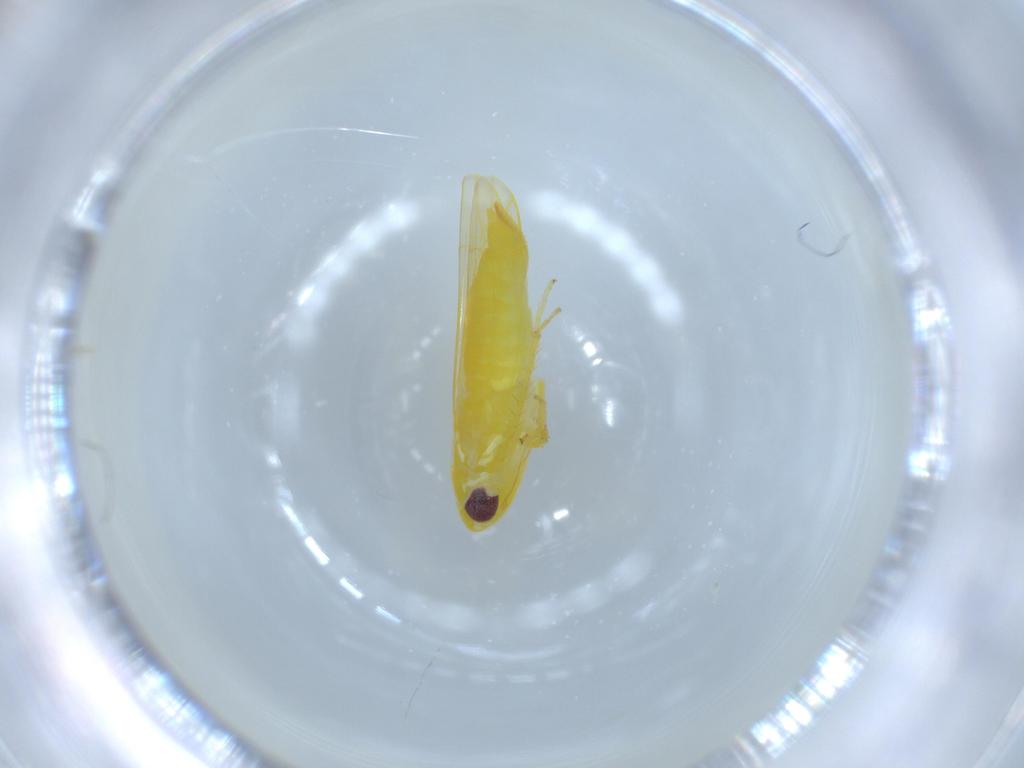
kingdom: Animalia
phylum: Arthropoda
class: Insecta
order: Hemiptera
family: Cicadellidae
